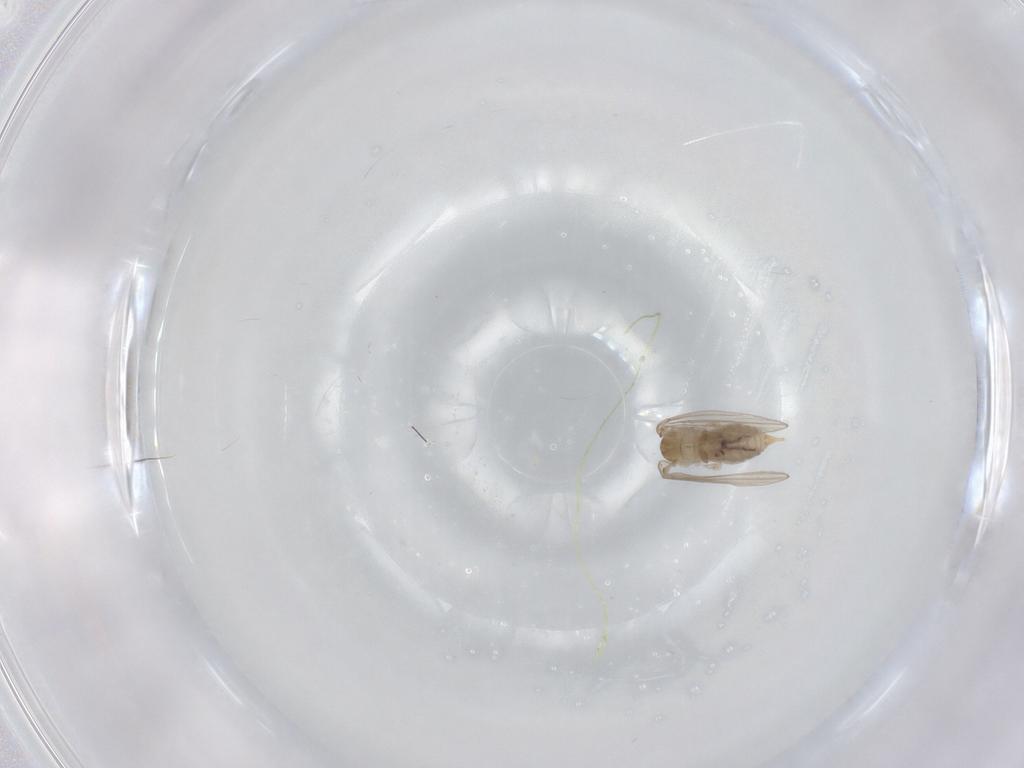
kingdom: Animalia
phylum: Arthropoda
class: Insecta
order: Diptera
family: Psychodidae
